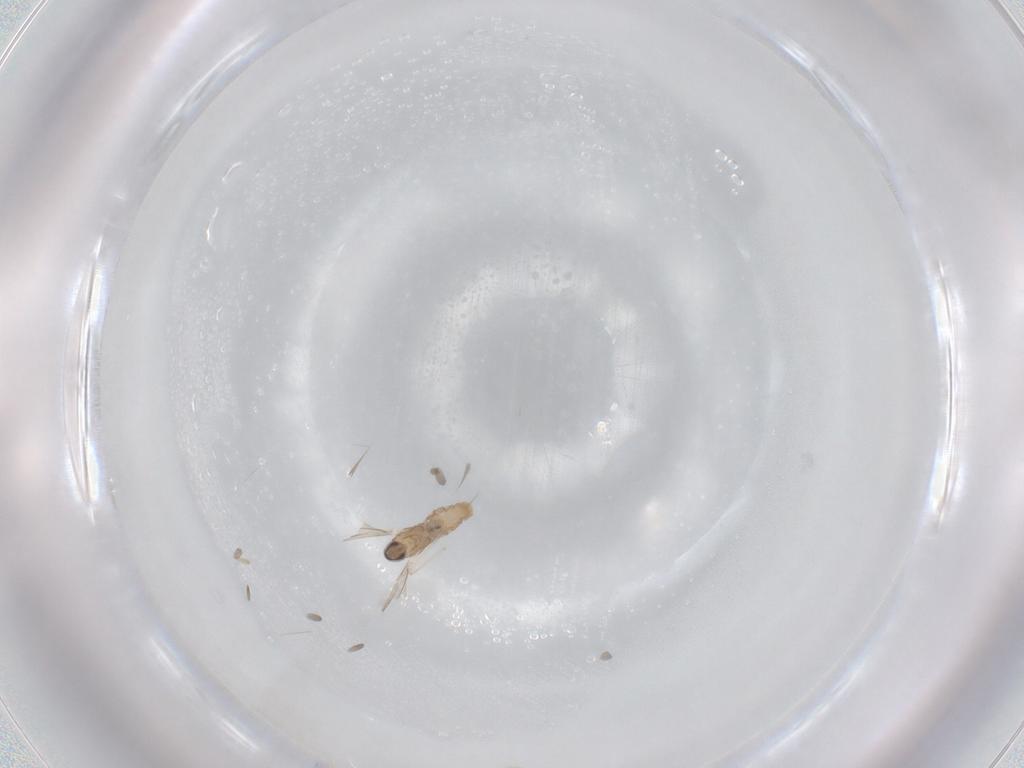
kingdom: Animalia
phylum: Arthropoda
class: Insecta
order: Diptera
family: Cecidomyiidae
